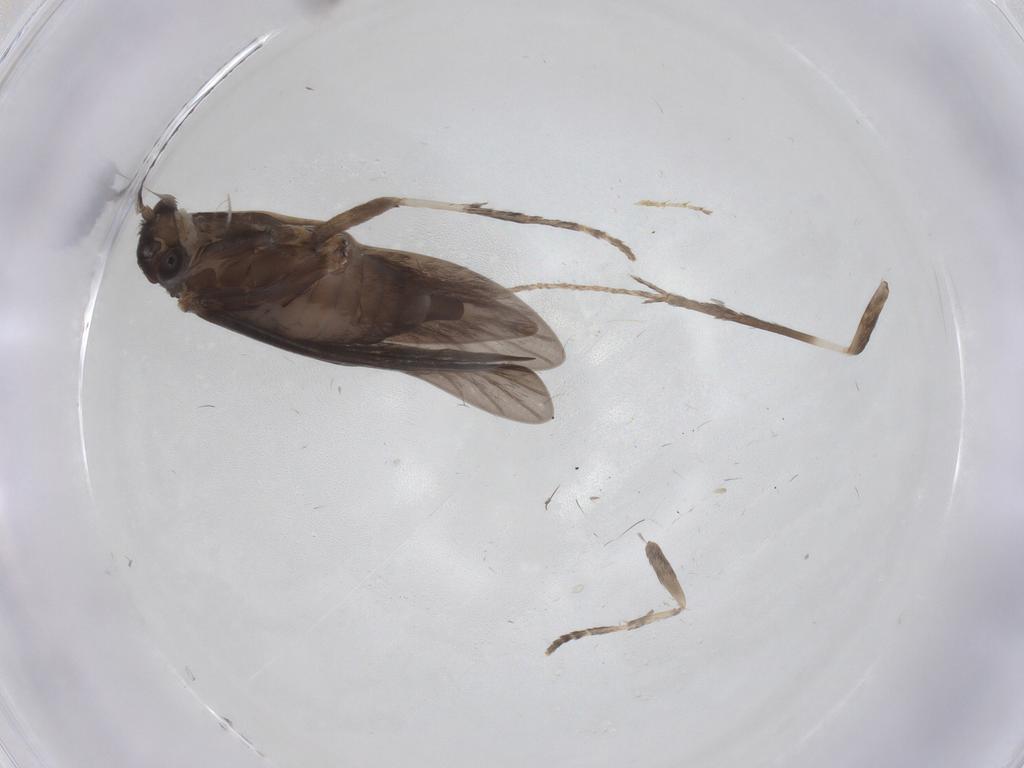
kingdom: Animalia
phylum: Arthropoda
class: Insecta
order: Trichoptera
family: Xiphocentronidae
